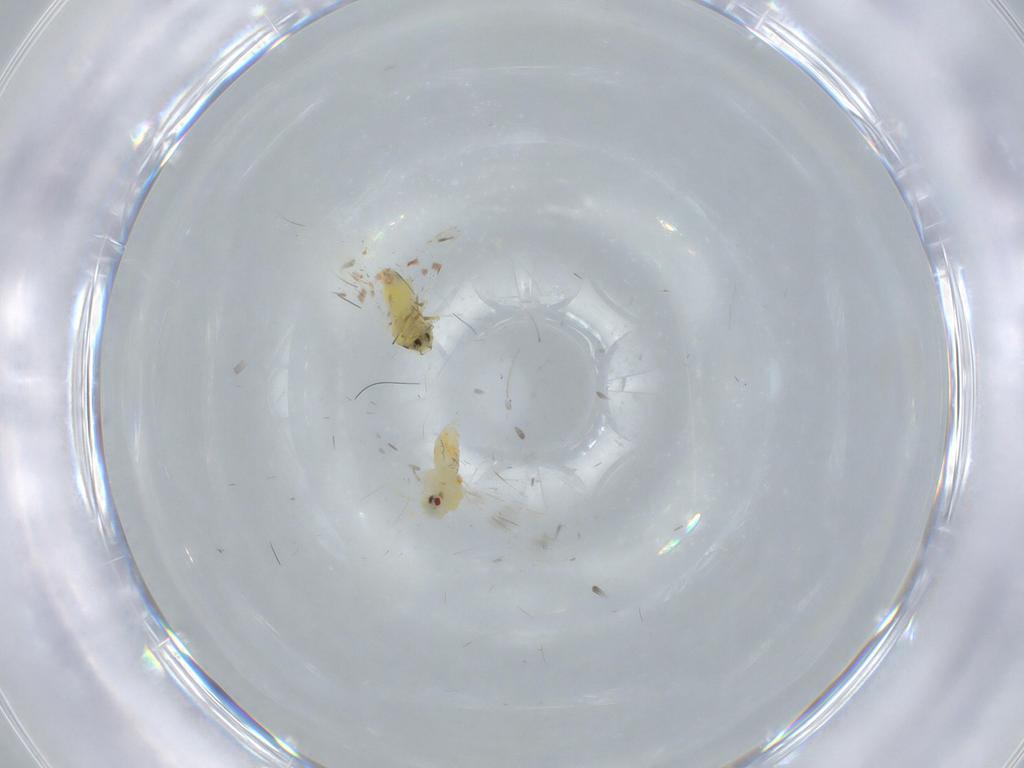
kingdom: Animalia
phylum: Arthropoda
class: Insecta
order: Hemiptera
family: Aleyrodidae
